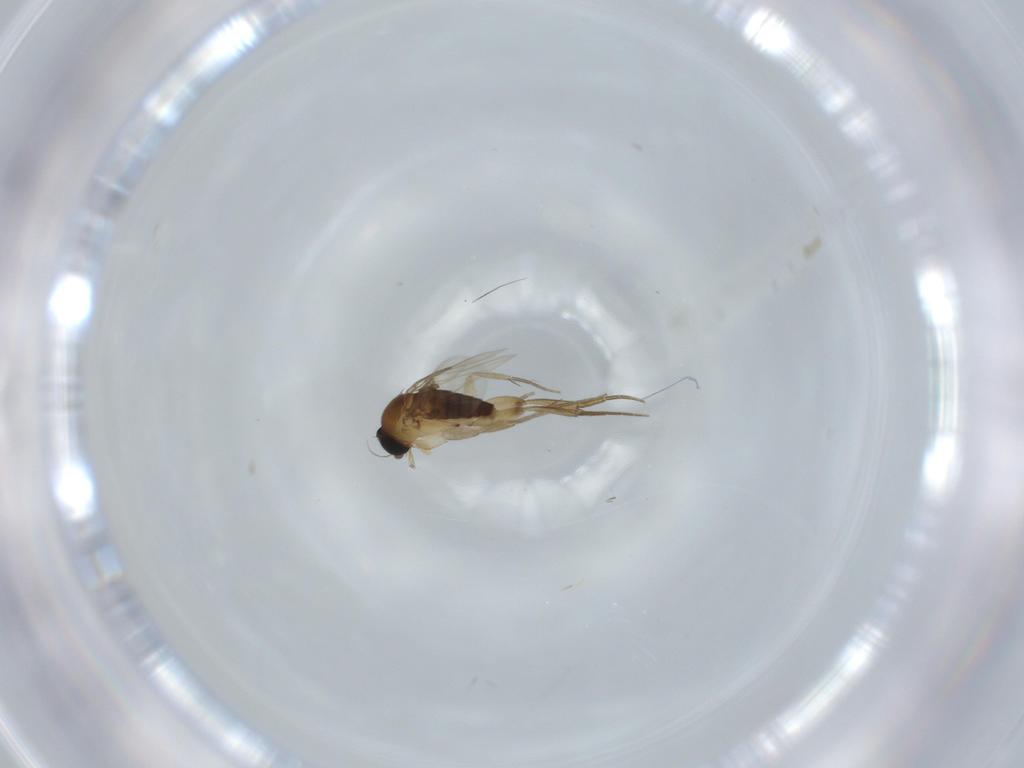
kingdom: Animalia
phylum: Arthropoda
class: Insecta
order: Diptera
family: Phoridae
